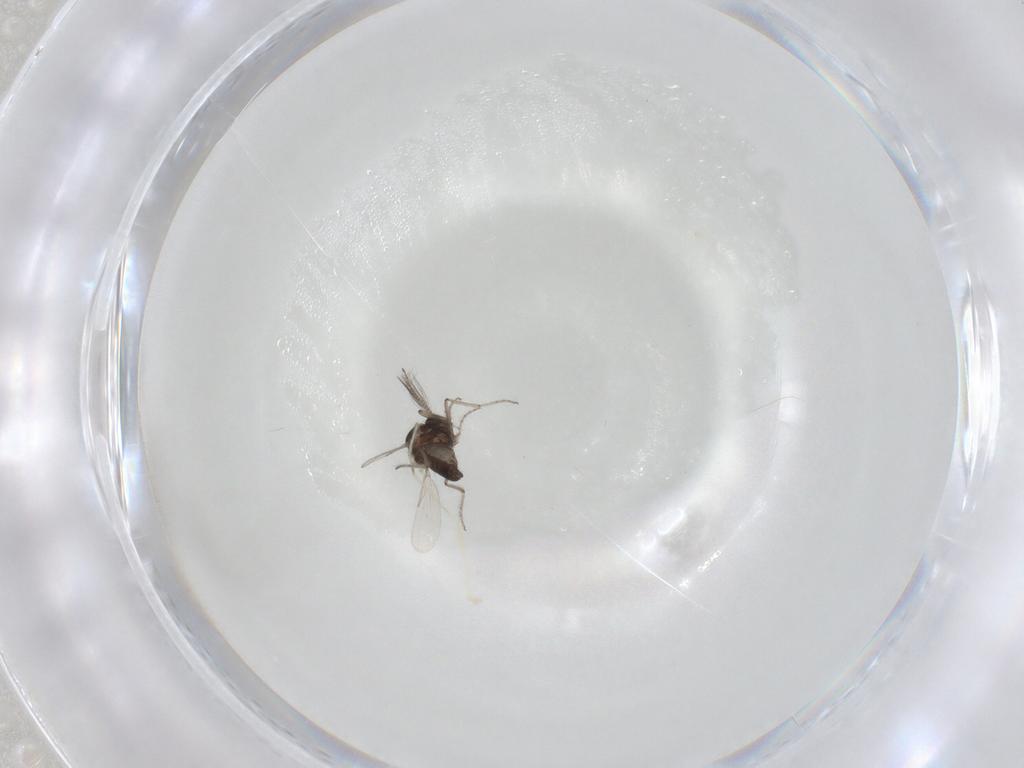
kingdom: Animalia
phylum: Arthropoda
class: Insecta
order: Diptera
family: Ceratopogonidae
